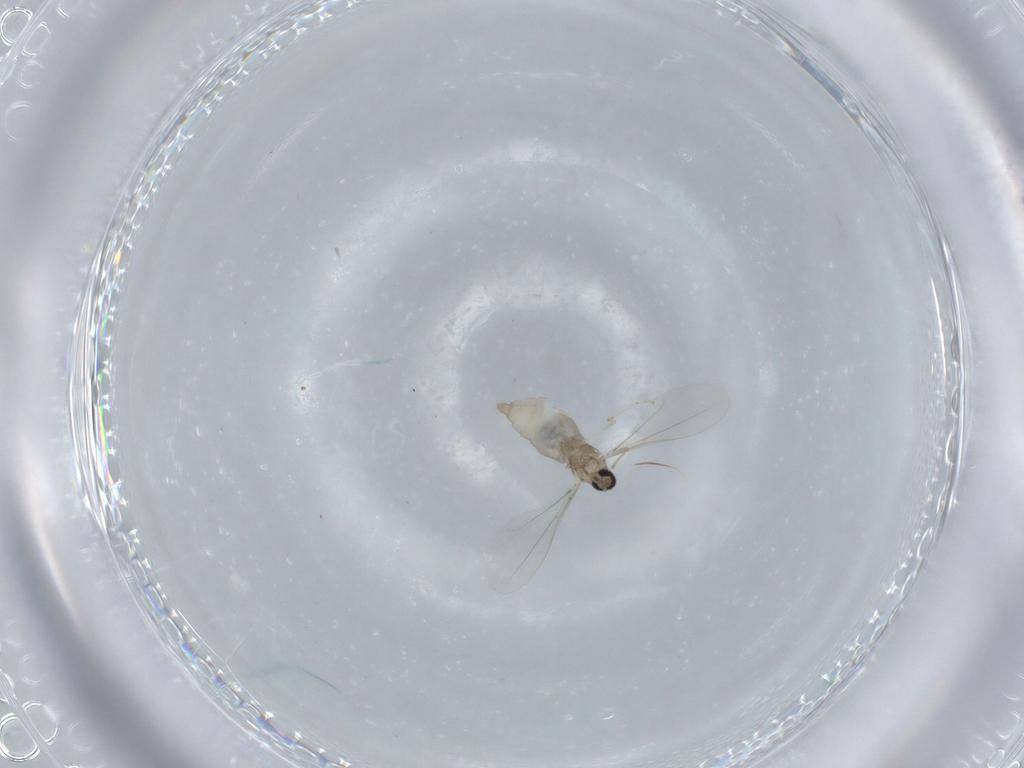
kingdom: Animalia
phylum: Arthropoda
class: Insecta
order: Diptera
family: Cecidomyiidae
